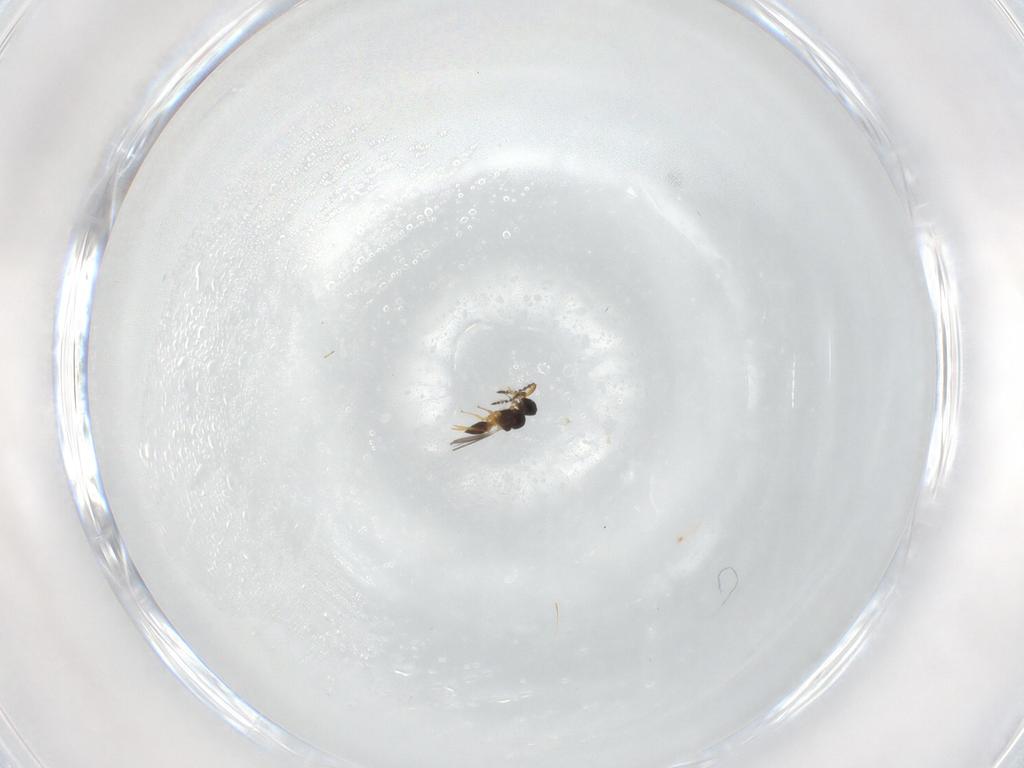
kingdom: Animalia
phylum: Arthropoda
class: Insecta
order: Hymenoptera
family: Platygastridae
